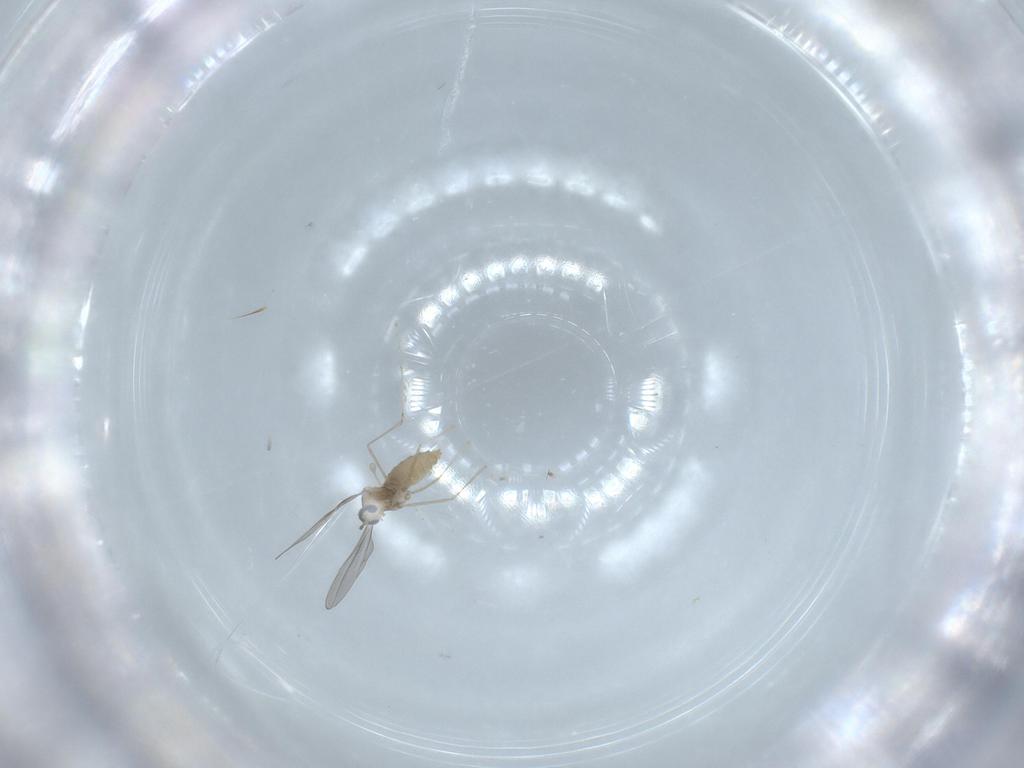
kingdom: Animalia
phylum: Arthropoda
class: Insecta
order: Diptera
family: Cecidomyiidae
